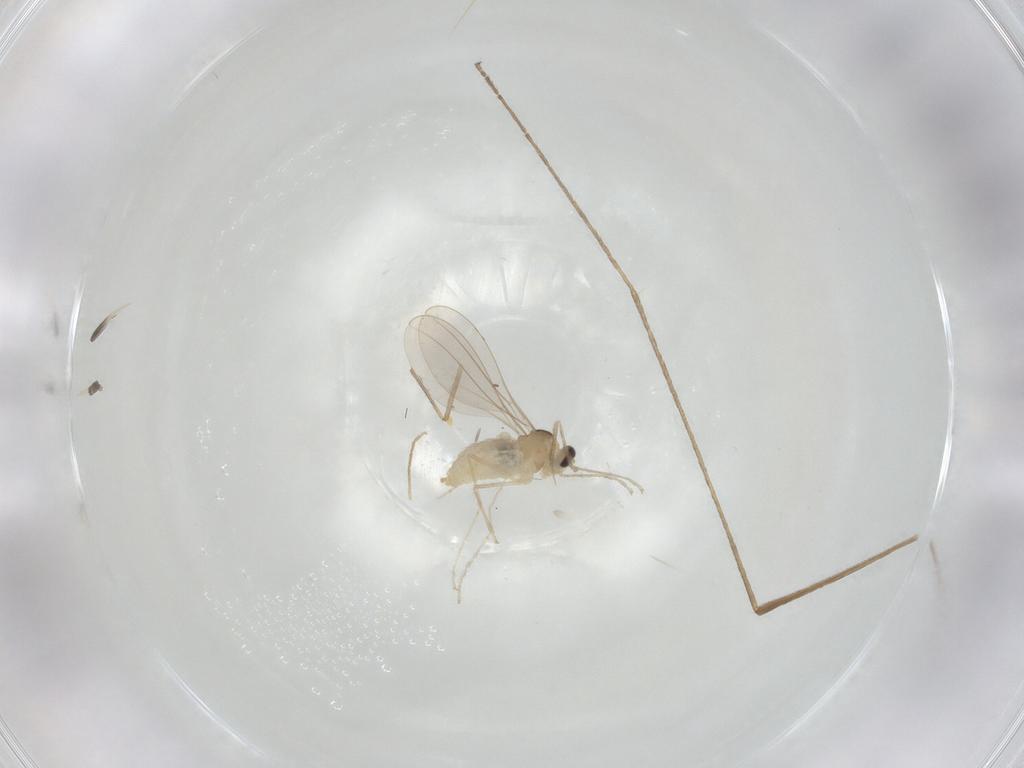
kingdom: Animalia
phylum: Arthropoda
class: Insecta
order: Diptera
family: Cecidomyiidae
